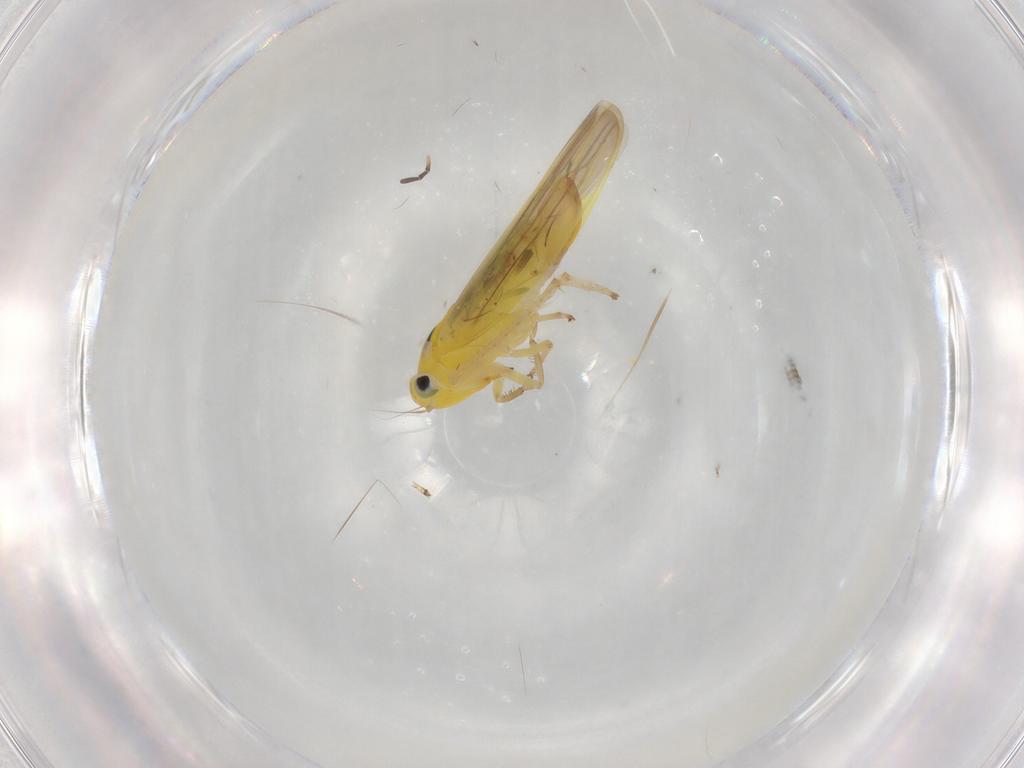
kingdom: Animalia
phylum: Arthropoda
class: Insecta
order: Hemiptera
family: Cicadellidae
